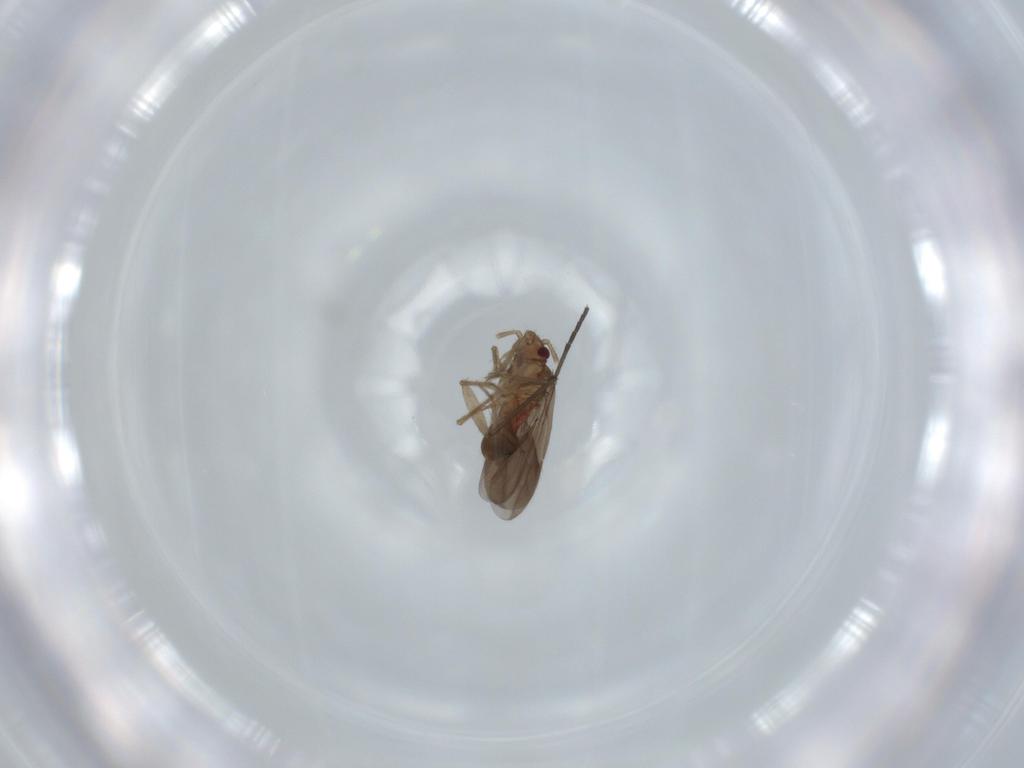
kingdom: Animalia
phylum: Arthropoda
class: Insecta
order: Hemiptera
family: Ceratocombidae
